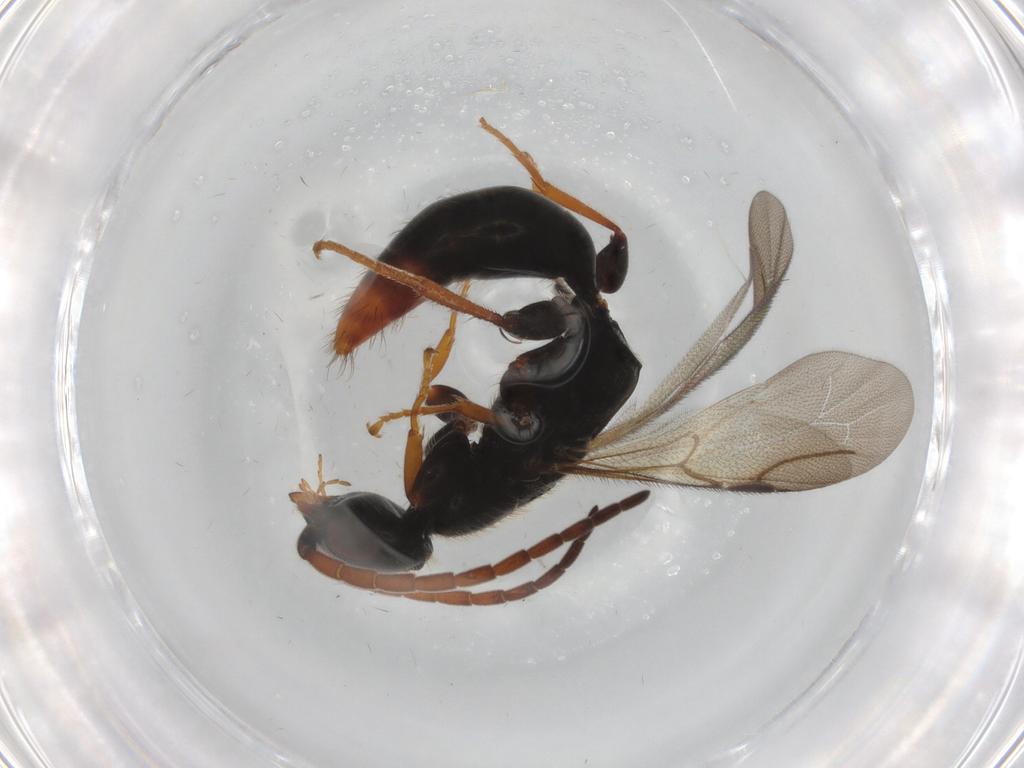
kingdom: Animalia
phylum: Arthropoda
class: Insecta
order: Hymenoptera
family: Bethylidae
